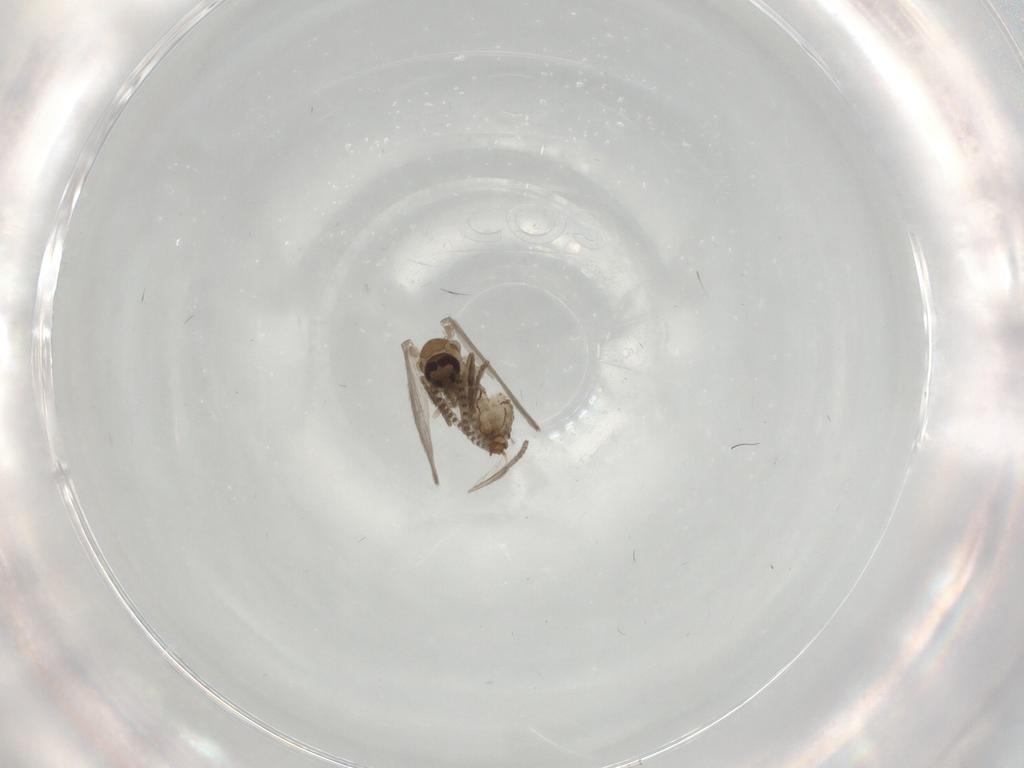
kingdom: Animalia
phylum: Arthropoda
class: Insecta
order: Diptera
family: Psychodidae
